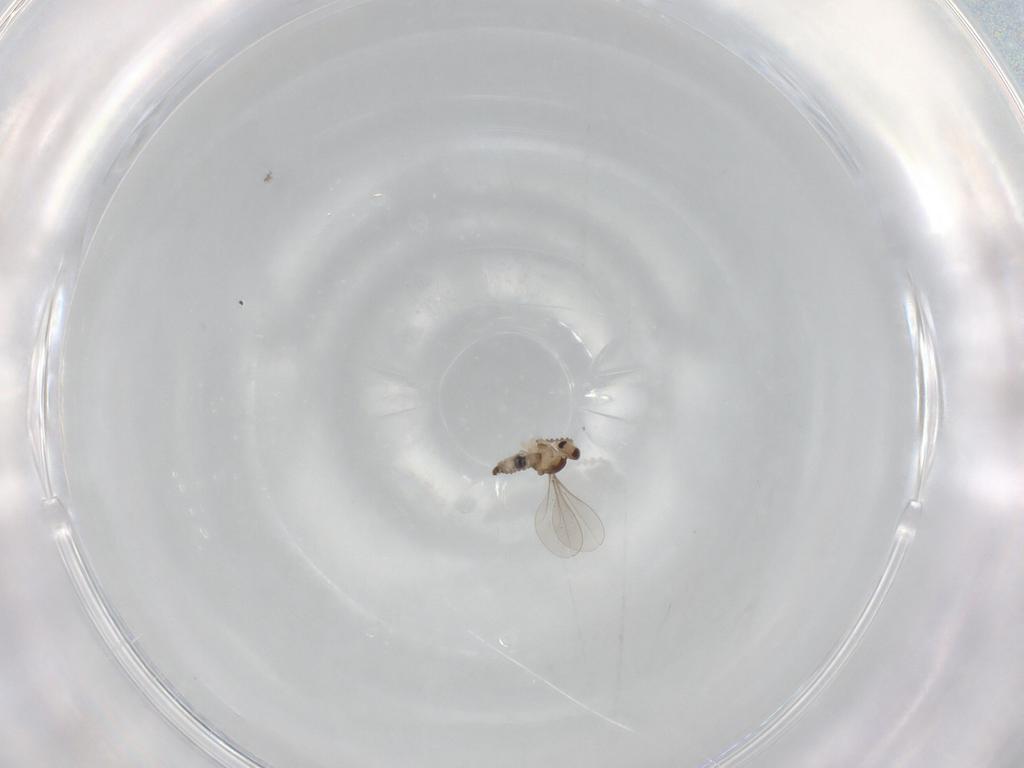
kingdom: Animalia
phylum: Arthropoda
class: Insecta
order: Diptera
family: Cecidomyiidae
